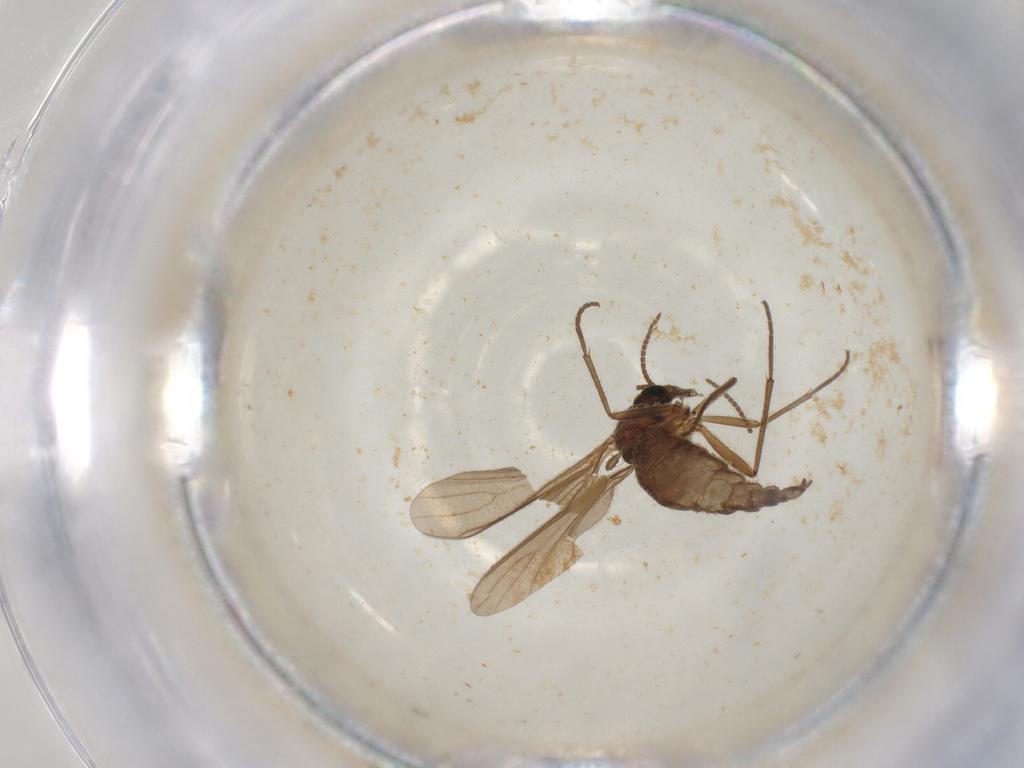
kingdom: Animalia
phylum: Arthropoda
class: Insecta
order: Diptera
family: Sciaridae
